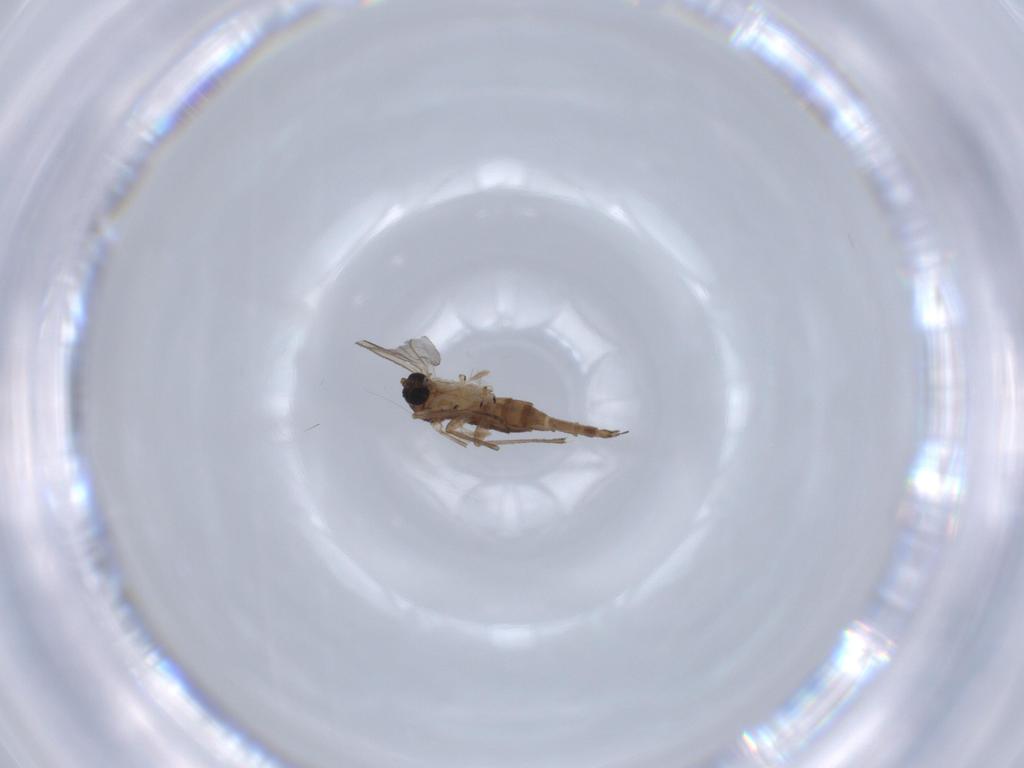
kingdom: Animalia
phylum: Arthropoda
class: Insecta
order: Diptera
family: Sciaridae
